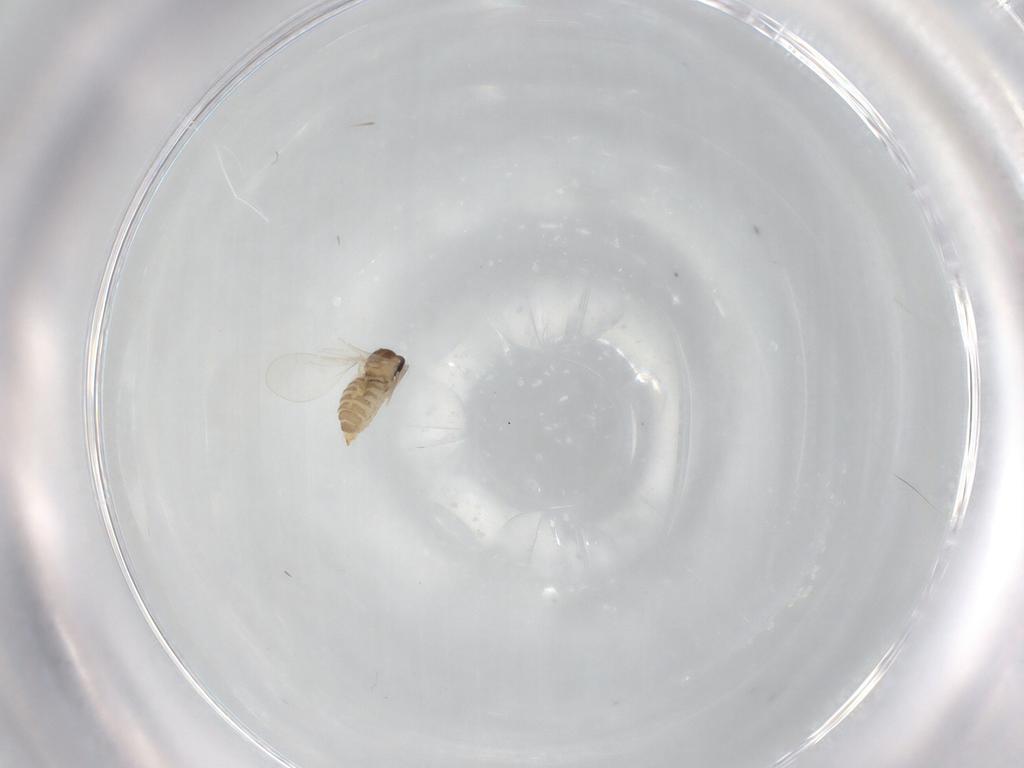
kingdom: Animalia
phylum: Arthropoda
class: Insecta
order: Diptera
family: Cecidomyiidae
